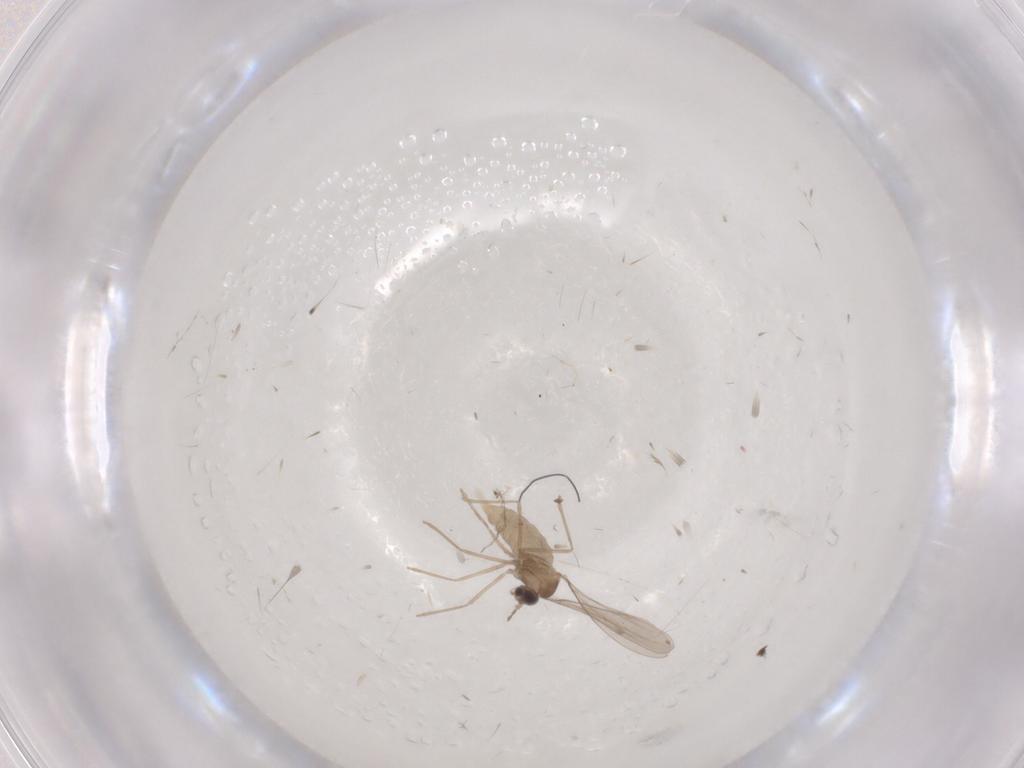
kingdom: Animalia
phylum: Arthropoda
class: Insecta
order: Diptera
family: Cecidomyiidae
